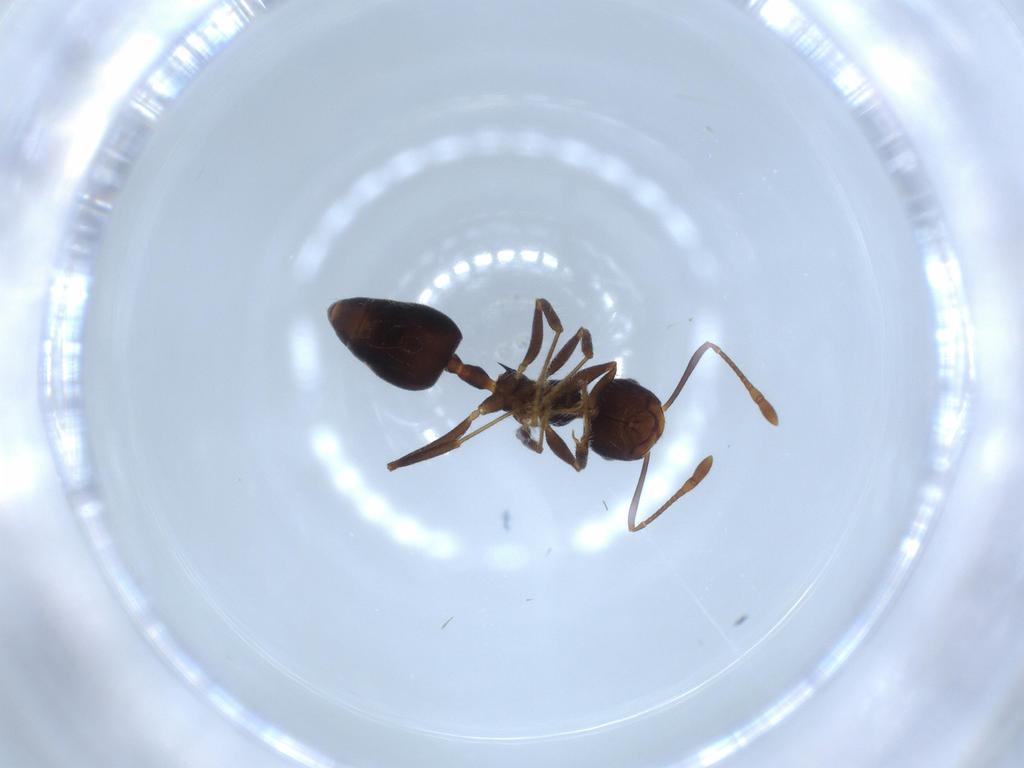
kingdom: Animalia
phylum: Arthropoda
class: Insecta
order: Hymenoptera
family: Formicidae
